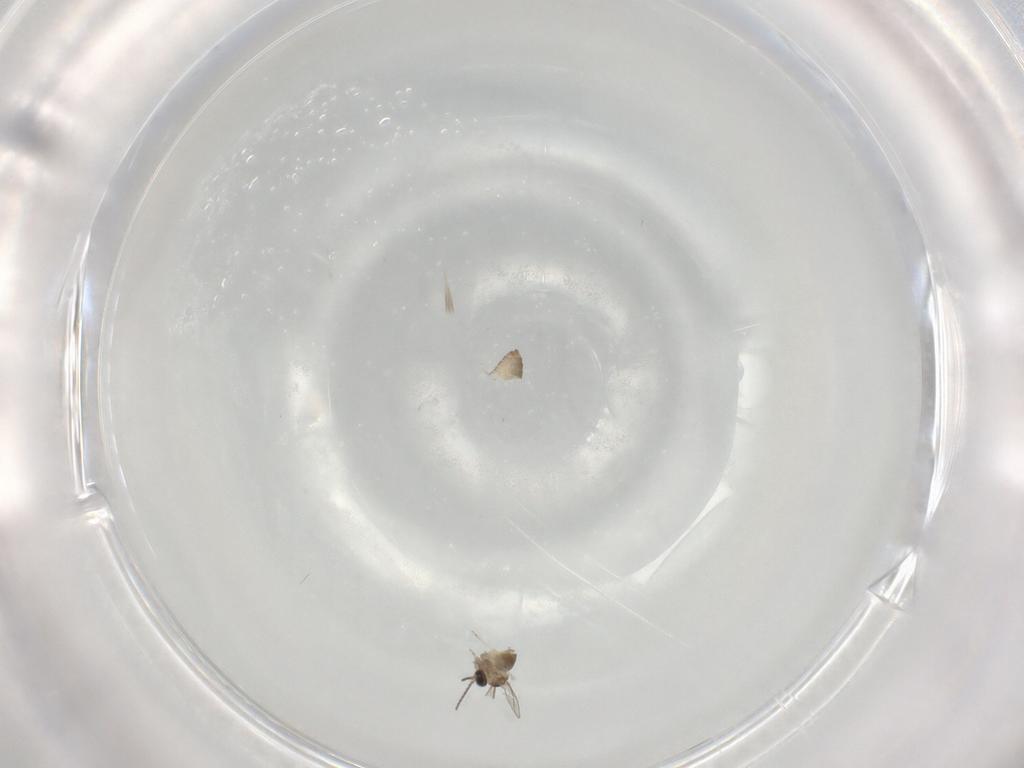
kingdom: Animalia
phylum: Arthropoda
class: Insecta
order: Diptera
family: Cecidomyiidae
